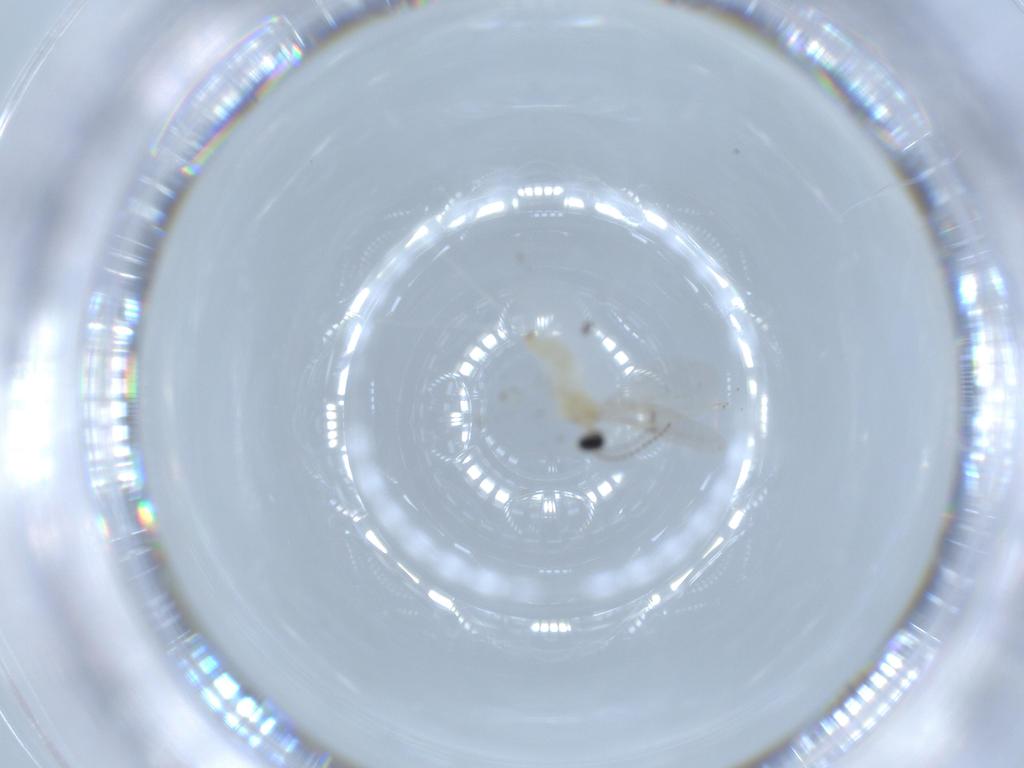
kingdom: Animalia
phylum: Arthropoda
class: Insecta
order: Diptera
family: Cecidomyiidae
